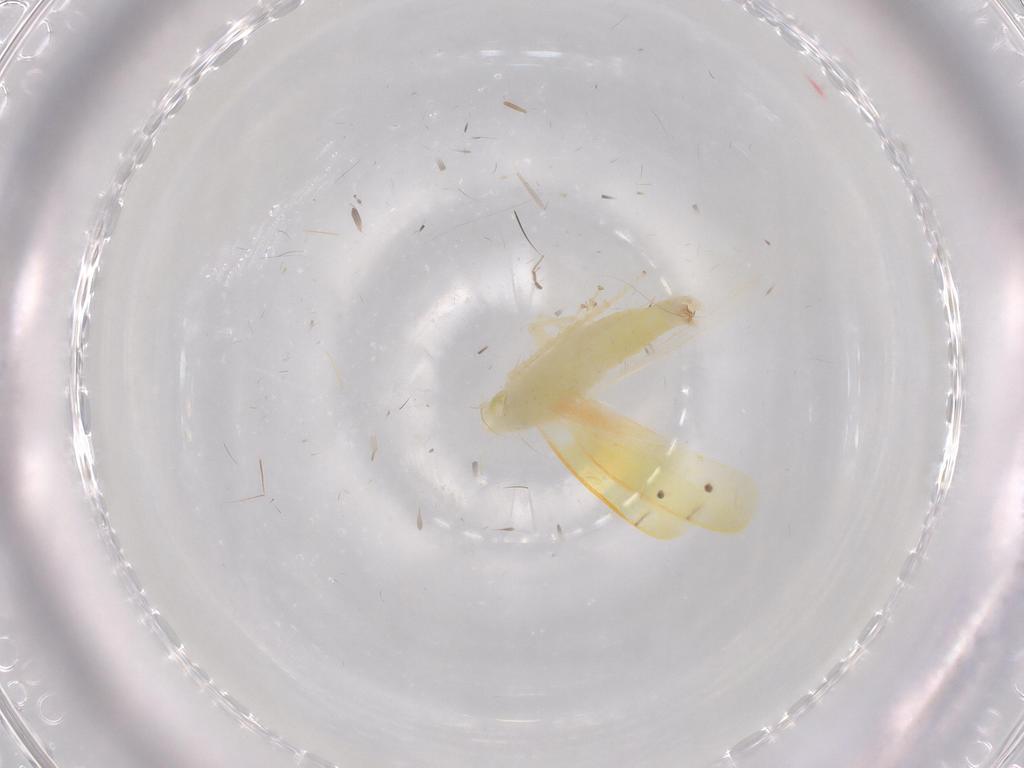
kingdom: Animalia
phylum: Arthropoda
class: Insecta
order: Hemiptera
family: Cicadellidae
